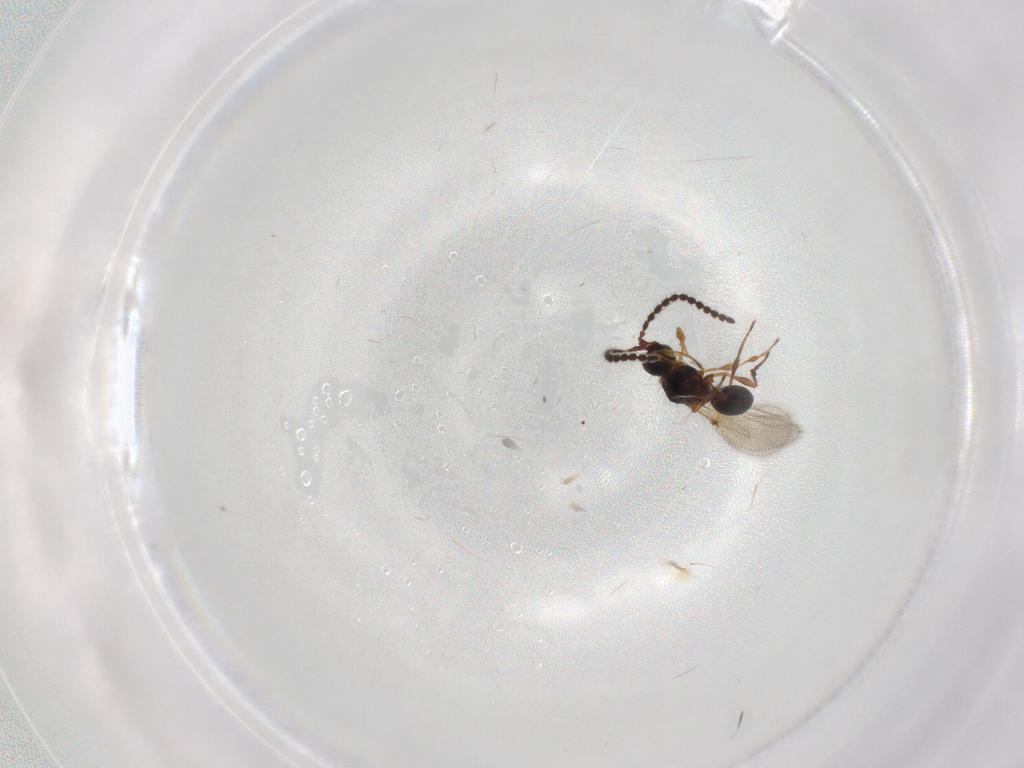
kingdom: Animalia
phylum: Arthropoda
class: Insecta
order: Hymenoptera
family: Diapriidae
